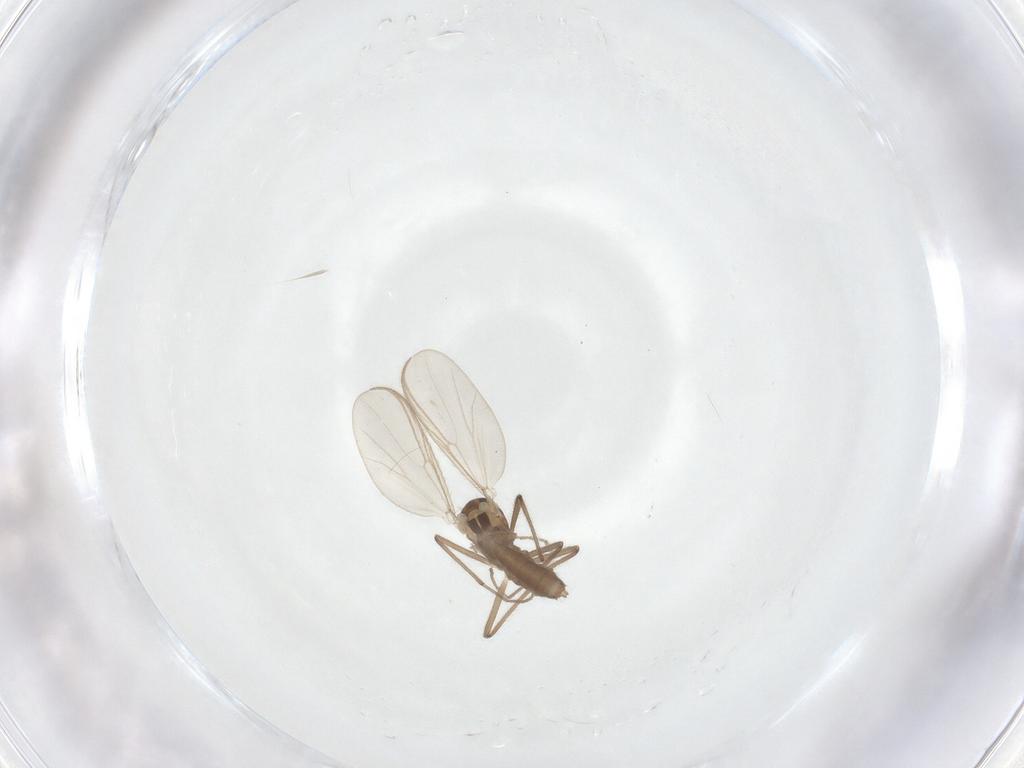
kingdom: Animalia
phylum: Arthropoda
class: Insecta
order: Diptera
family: Chironomidae
